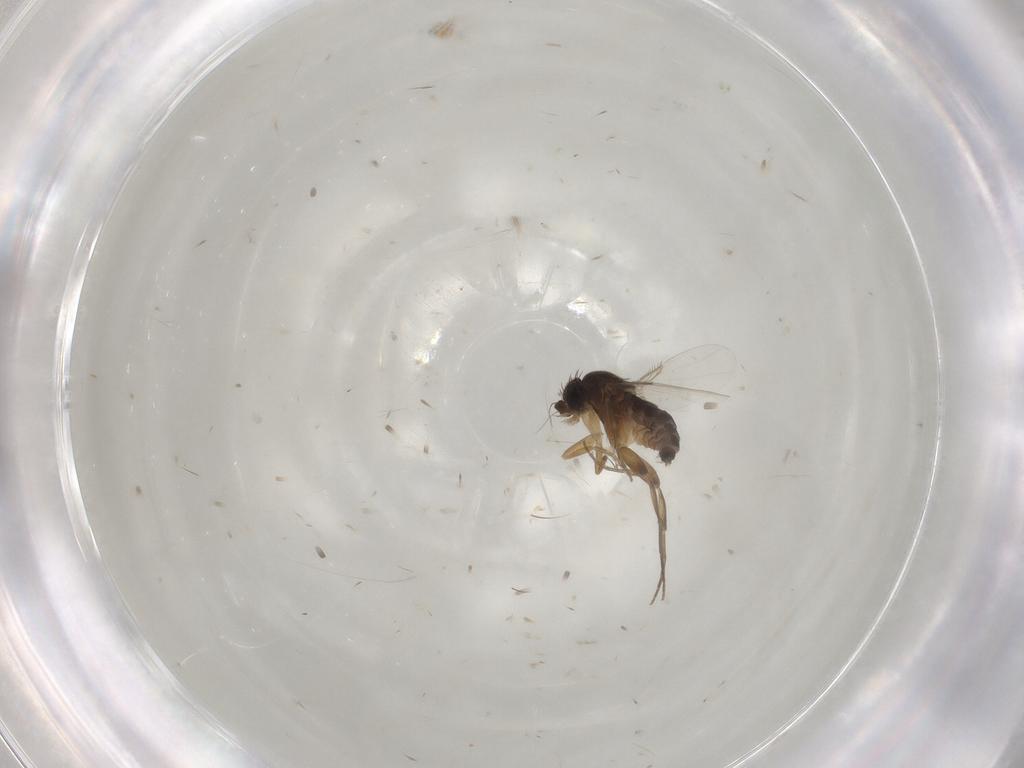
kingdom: Animalia
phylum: Arthropoda
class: Insecta
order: Diptera
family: Phoridae
